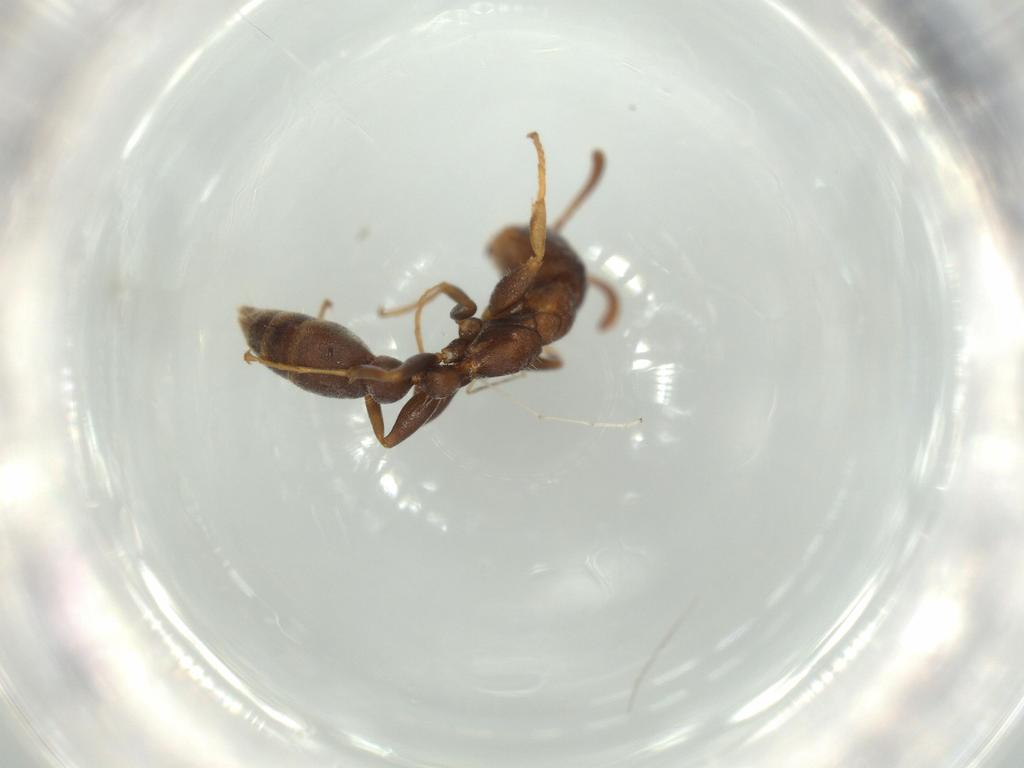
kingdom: Animalia
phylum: Arthropoda
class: Insecta
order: Hymenoptera
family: Formicidae
